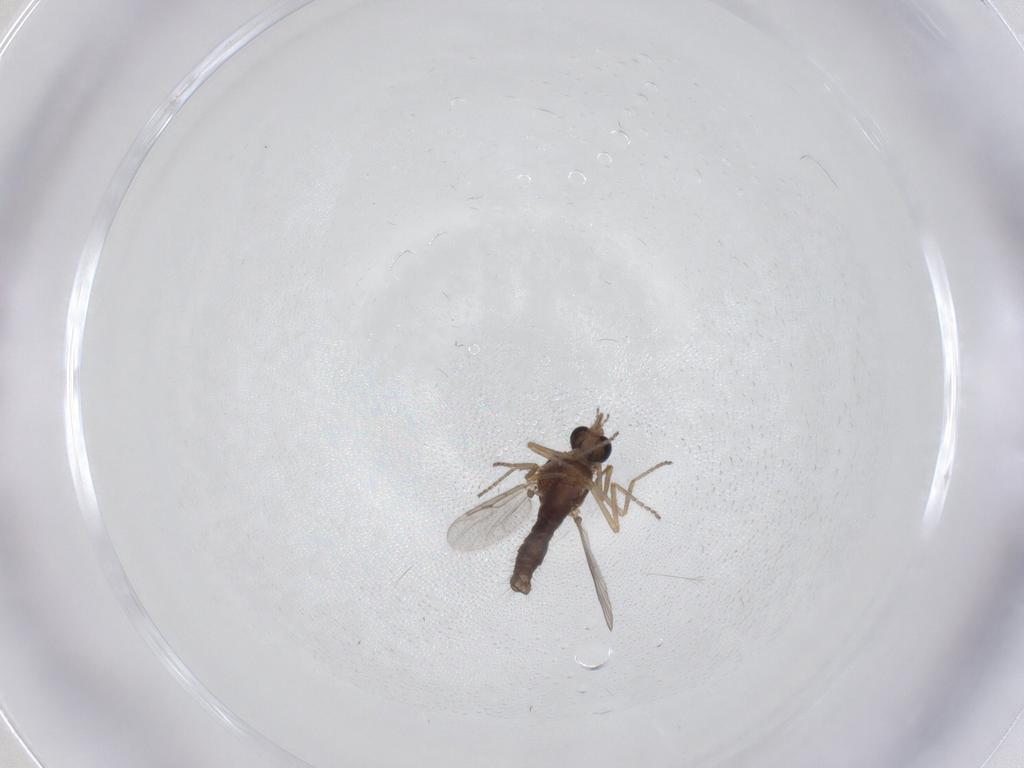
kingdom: Animalia
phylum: Arthropoda
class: Insecta
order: Diptera
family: Ceratopogonidae
